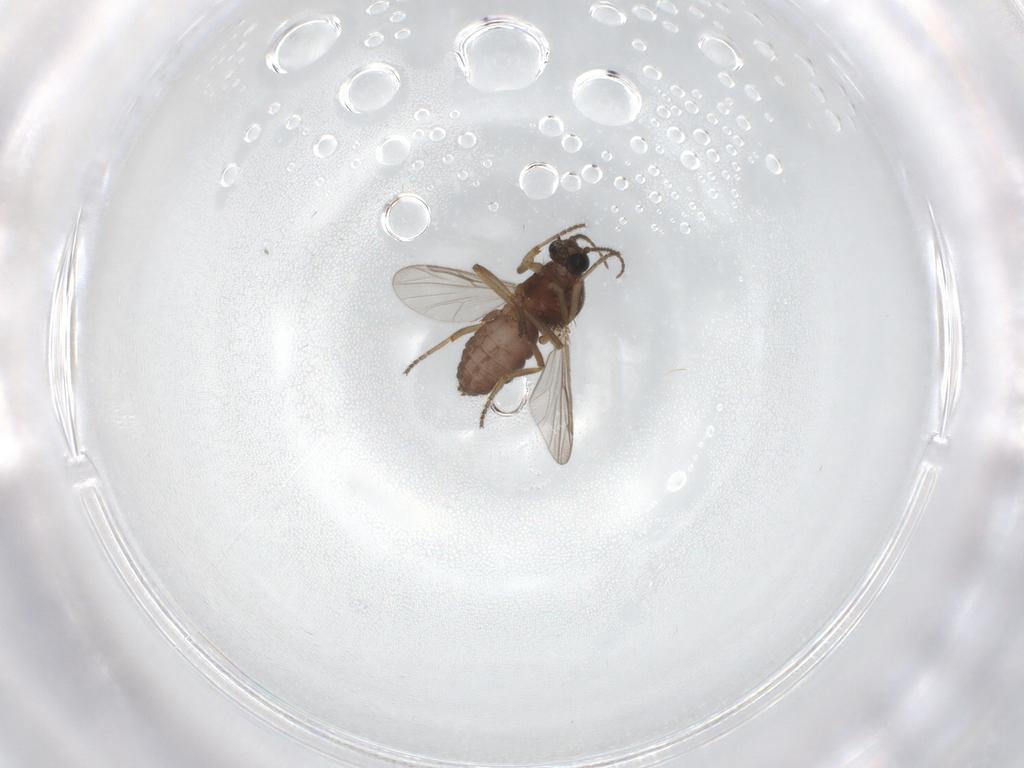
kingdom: Animalia
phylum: Arthropoda
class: Insecta
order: Diptera
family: Ceratopogonidae
